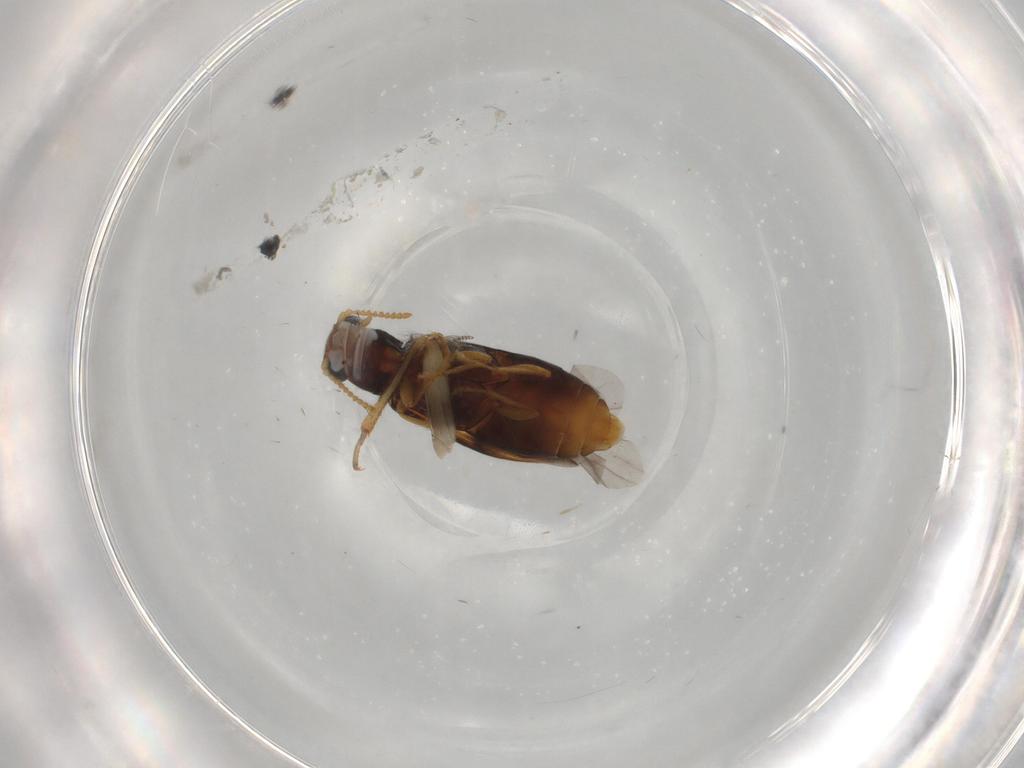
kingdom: Animalia
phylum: Arthropoda
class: Insecta
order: Coleoptera
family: Mycteridae
